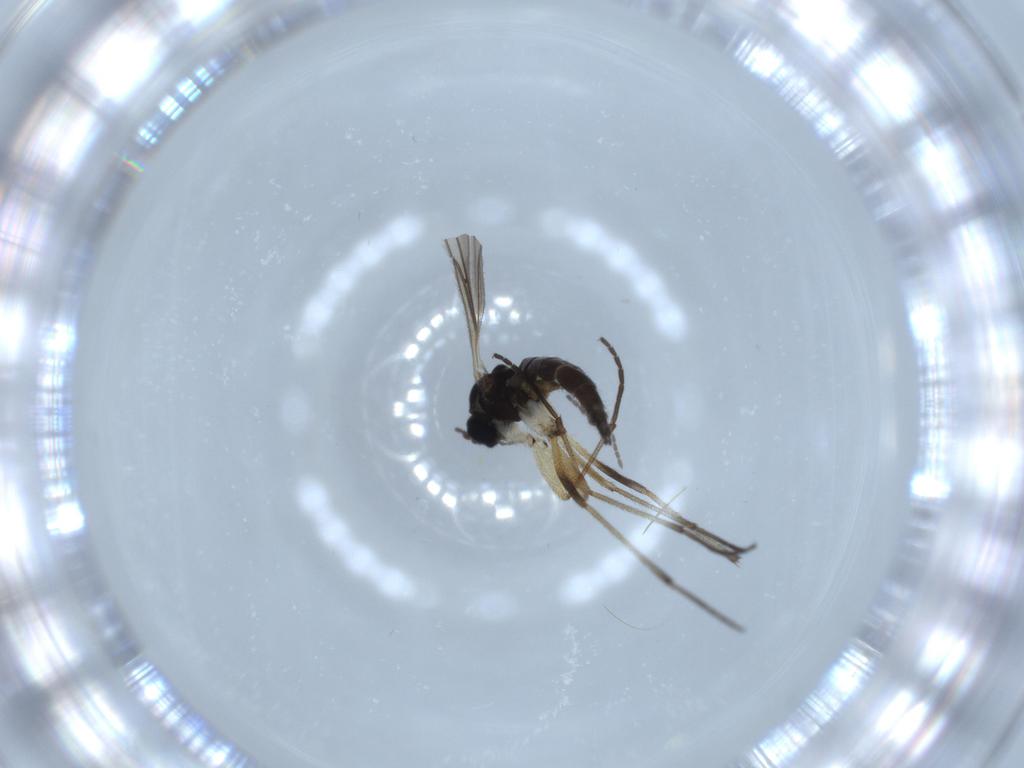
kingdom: Animalia
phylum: Arthropoda
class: Insecta
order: Diptera
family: Sciaridae
